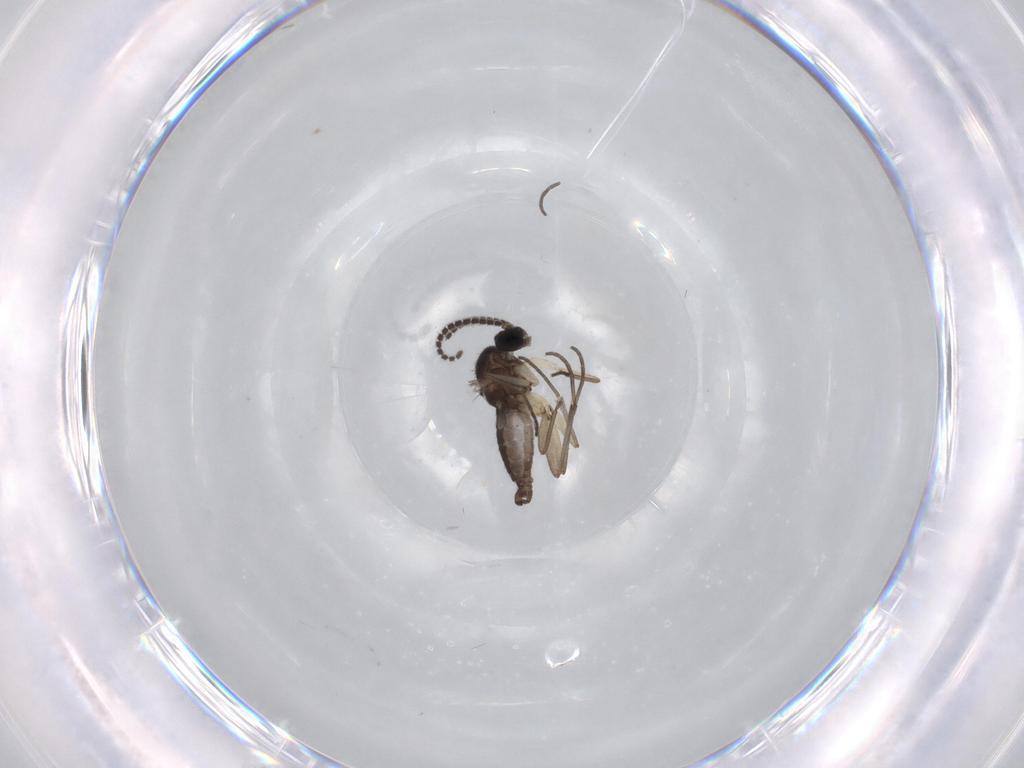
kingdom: Animalia
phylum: Arthropoda
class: Insecta
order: Diptera
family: Sciaridae
